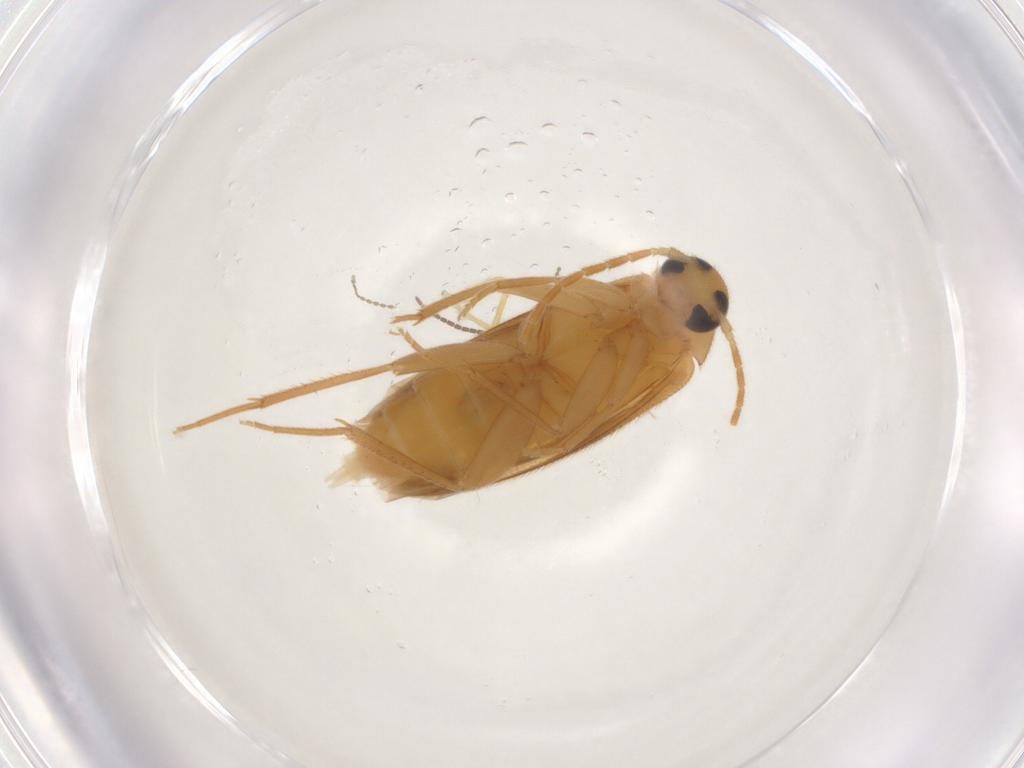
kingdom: Animalia
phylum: Arthropoda
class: Insecta
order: Coleoptera
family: Scraptiidae
